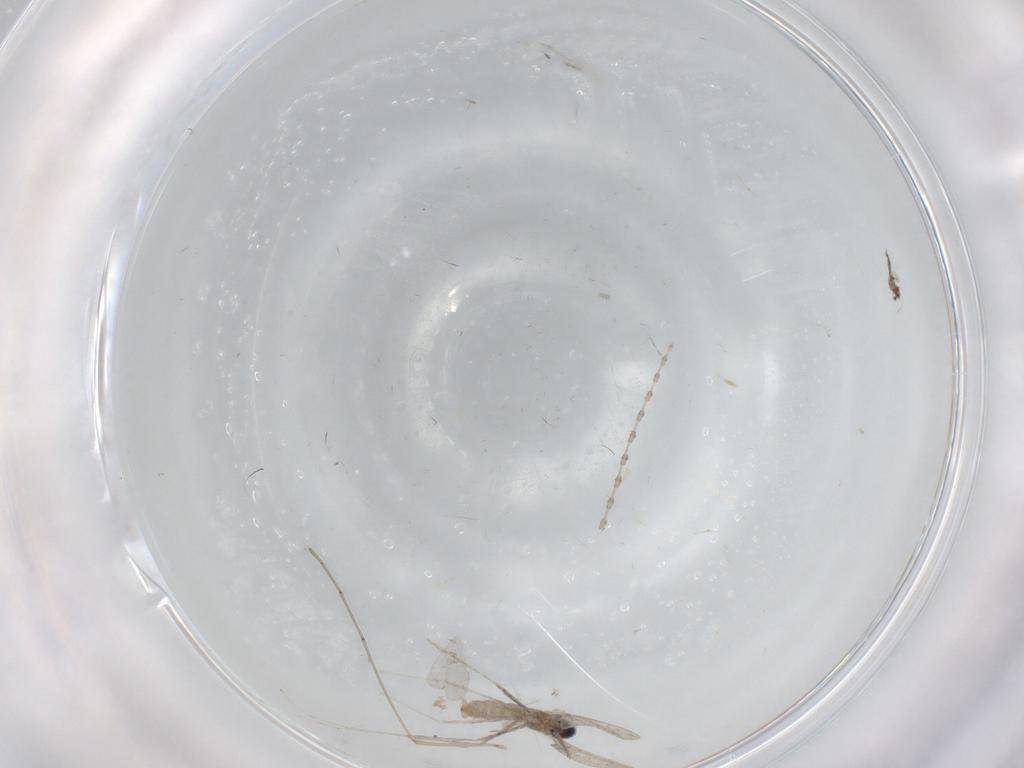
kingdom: Animalia
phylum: Arthropoda
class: Insecta
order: Diptera
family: Cecidomyiidae
